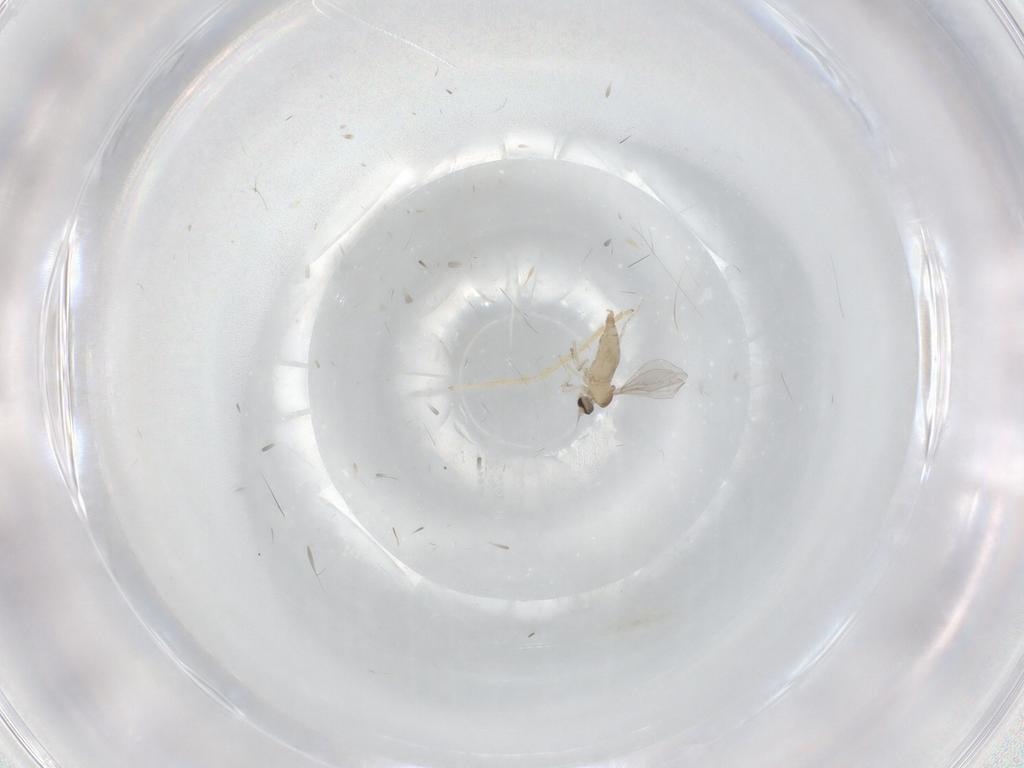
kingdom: Animalia
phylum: Arthropoda
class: Insecta
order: Diptera
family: Cecidomyiidae
